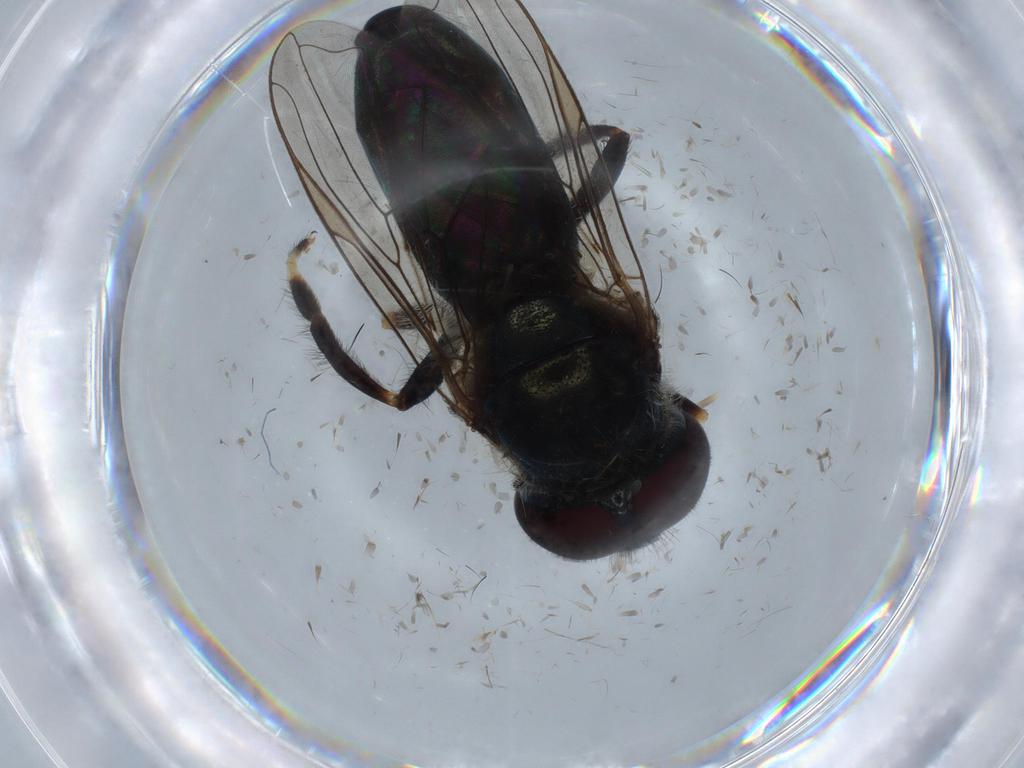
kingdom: Animalia
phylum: Arthropoda
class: Insecta
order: Diptera
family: Syrphidae
